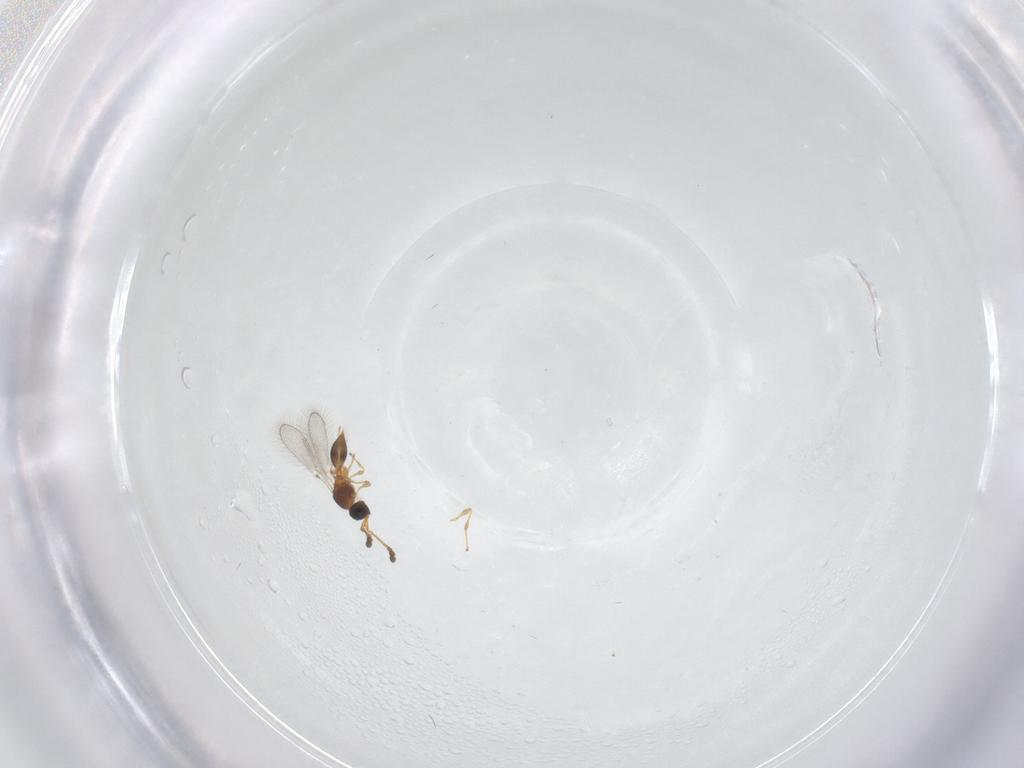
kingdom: Animalia
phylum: Arthropoda
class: Insecta
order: Hymenoptera
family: Diapriidae
